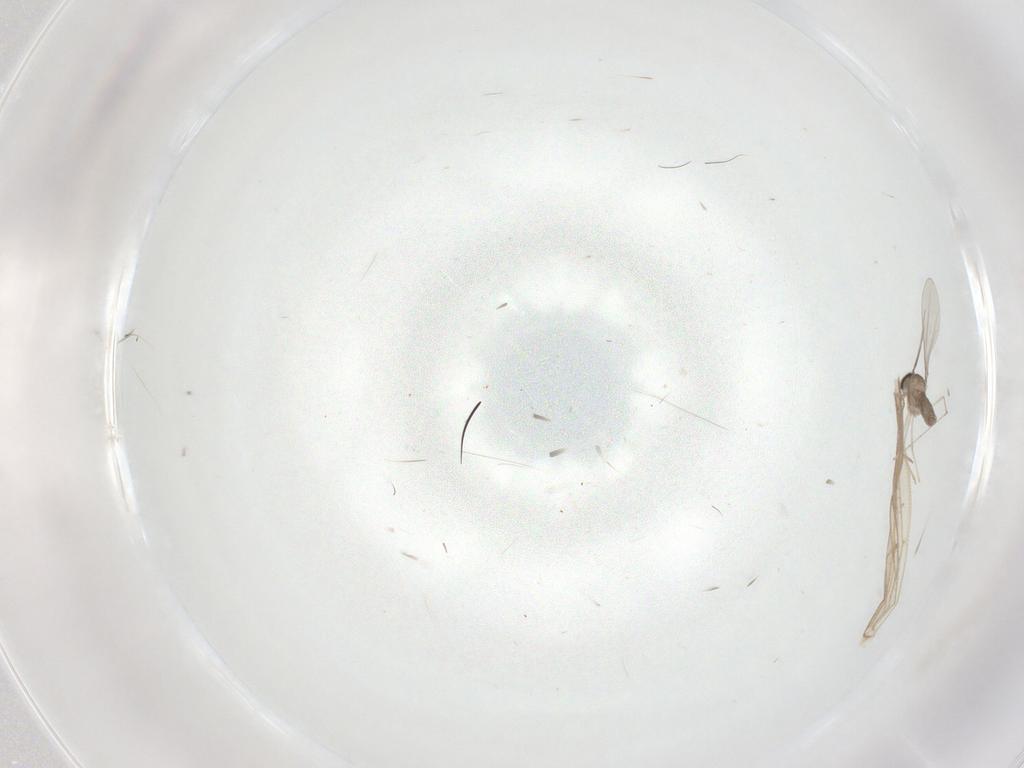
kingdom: Animalia
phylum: Arthropoda
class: Insecta
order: Diptera
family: Cecidomyiidae
